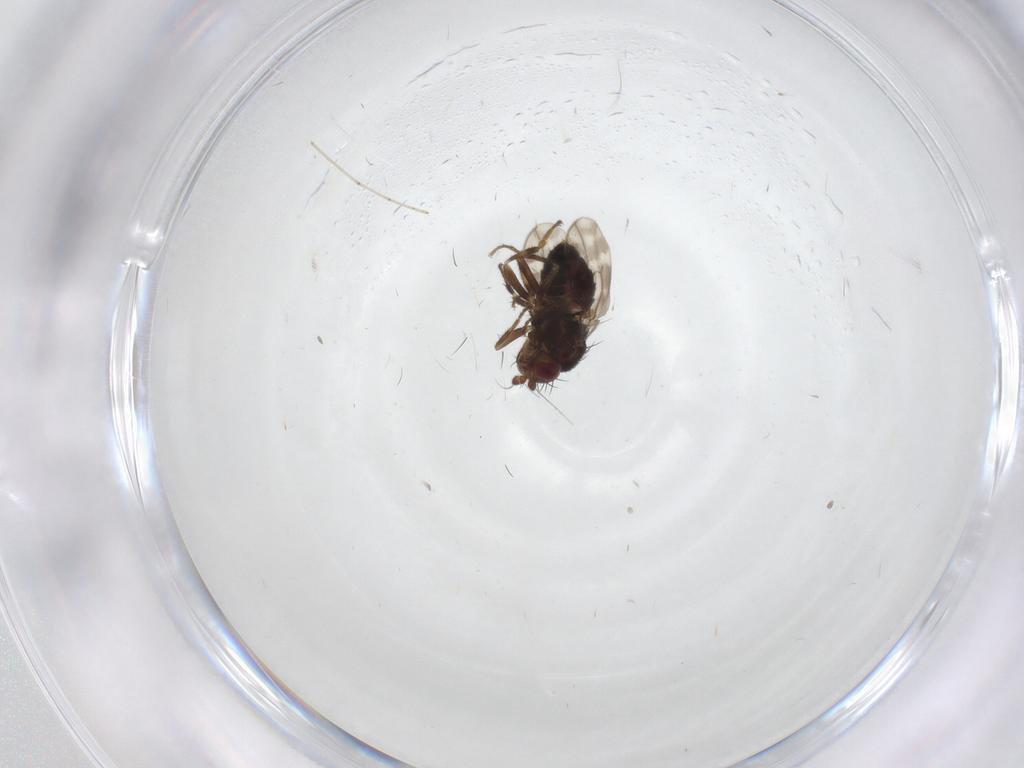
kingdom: Animalia
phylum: Arthropoda
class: Insecta
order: Diptera
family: Sphaeroceridae
